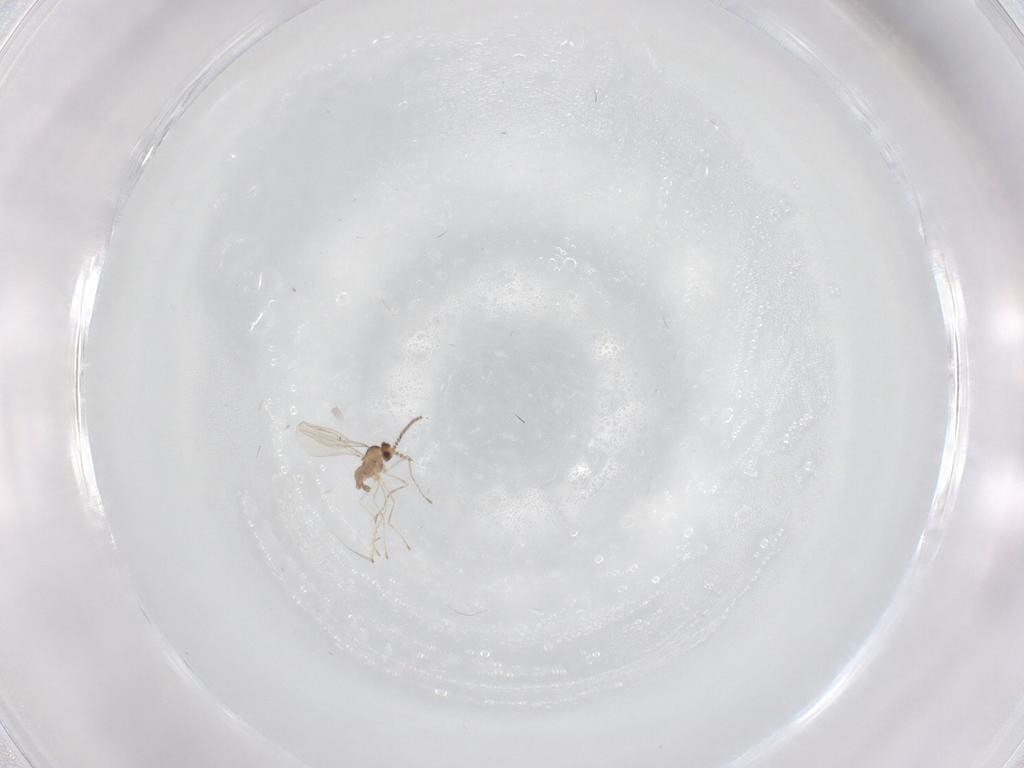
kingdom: Animalia
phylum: Arthropoda
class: Insecta
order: Diptera
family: Cecidomyiidae
